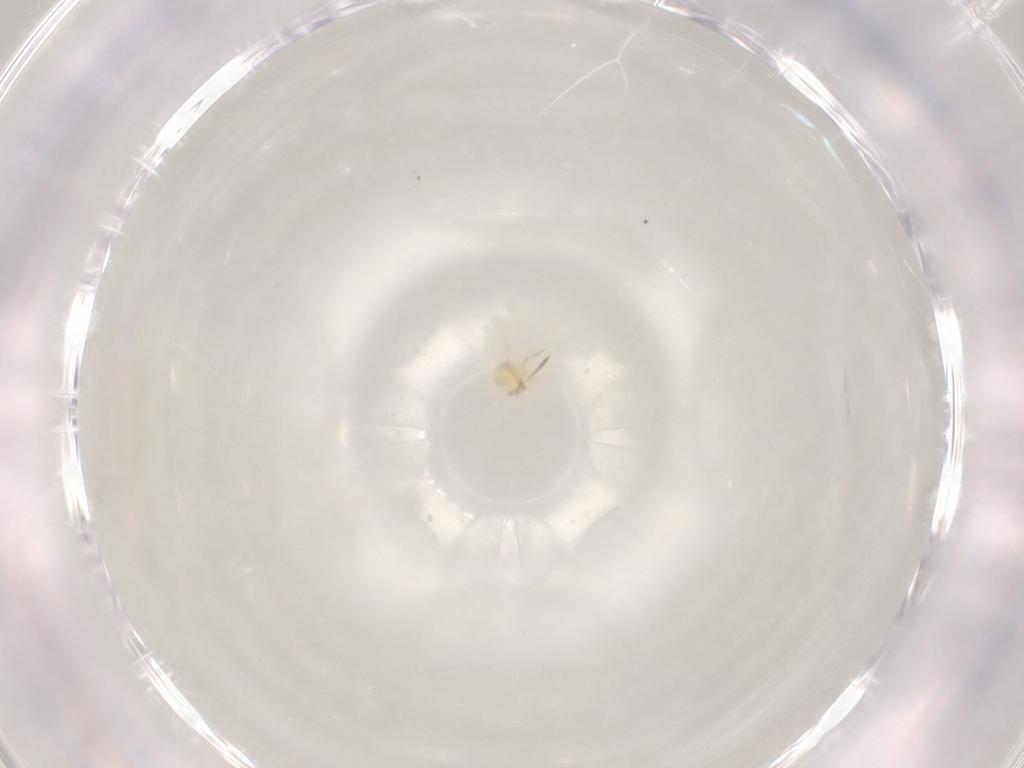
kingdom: Animalia
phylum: Arthropoda
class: Arachnida
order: Trombidiformes
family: Anystidae
